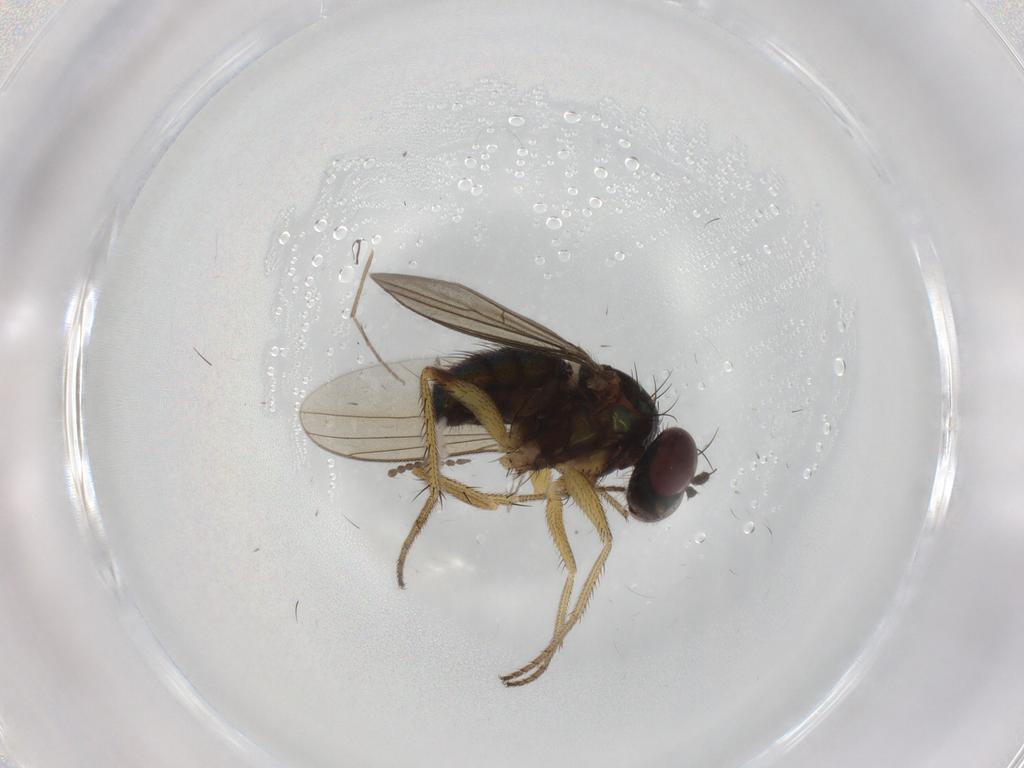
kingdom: Animalia
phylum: Arthropoda
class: Insecta
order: Diptera
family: Dolichopodidae
